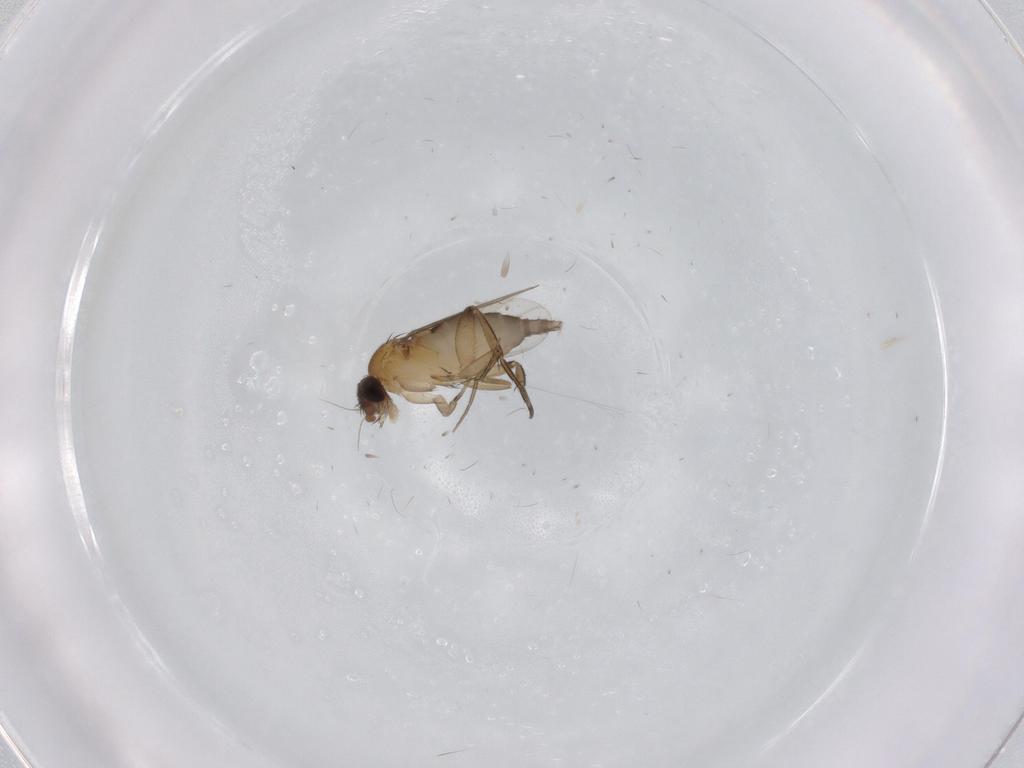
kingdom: Animalia
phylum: Arthropoda
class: Insecta
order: Diptera
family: Phoridae
